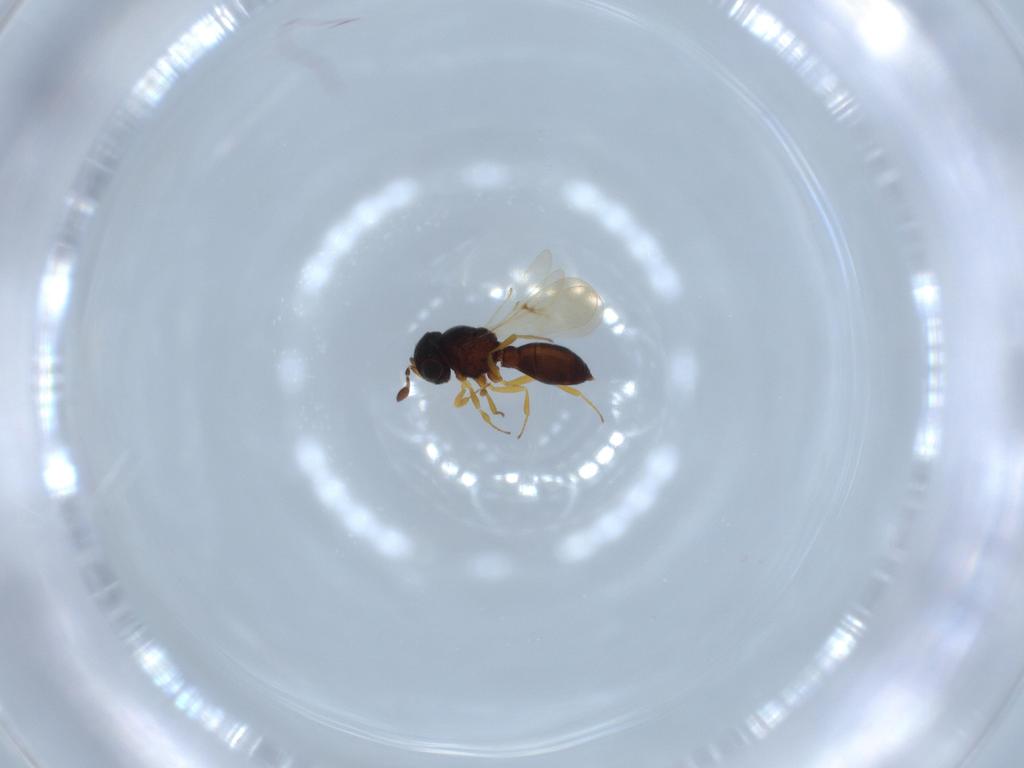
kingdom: Animalia
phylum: Arthropoda
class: Insecta
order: Hymenoptera
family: Scelionidae
